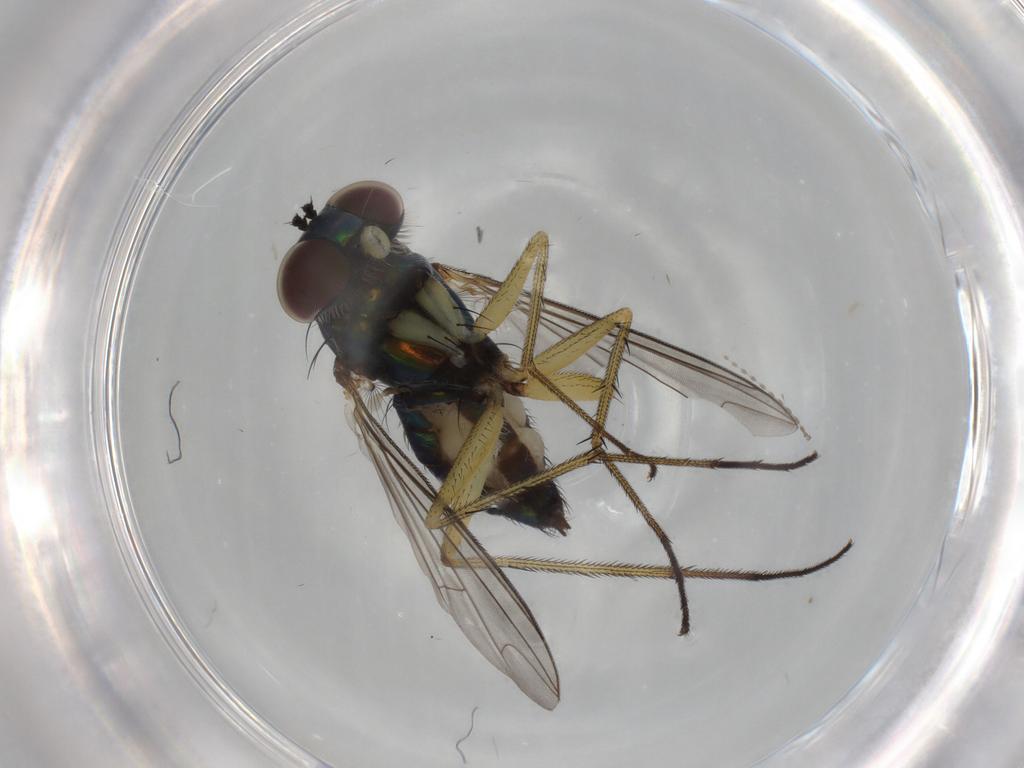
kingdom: Animalia
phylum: Arthropoda
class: Insecta
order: Diptera
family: Dolichopodidae
